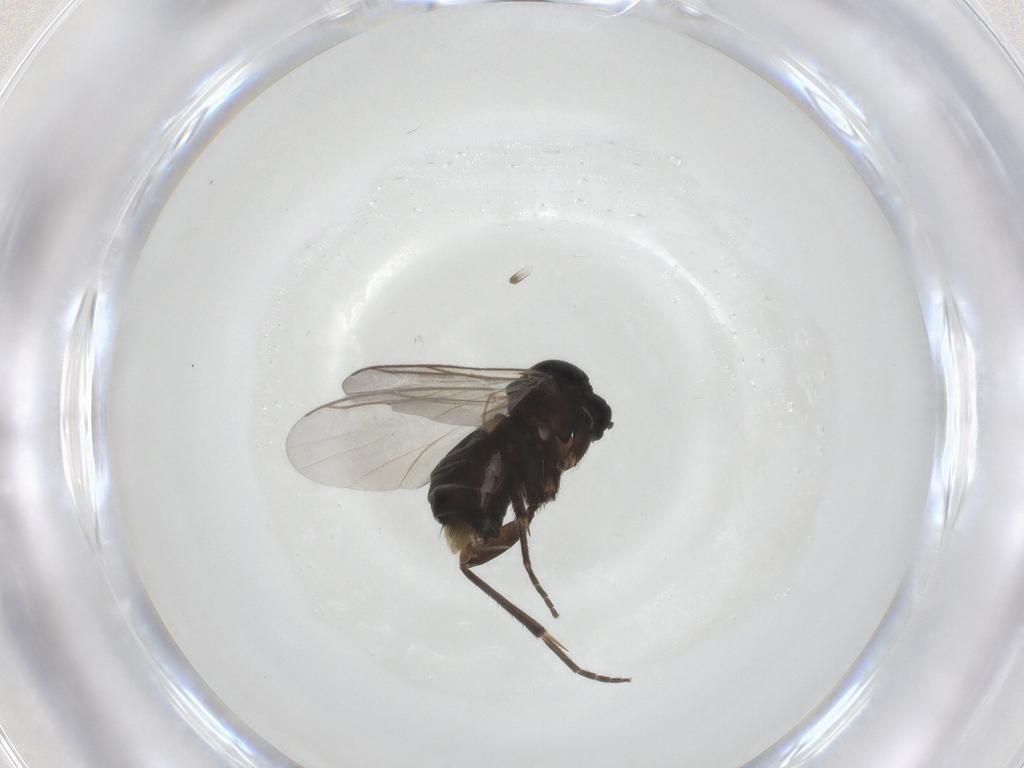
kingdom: Animalia
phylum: Arthropoda
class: Insecta
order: Diptera
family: Mycetophilidae
